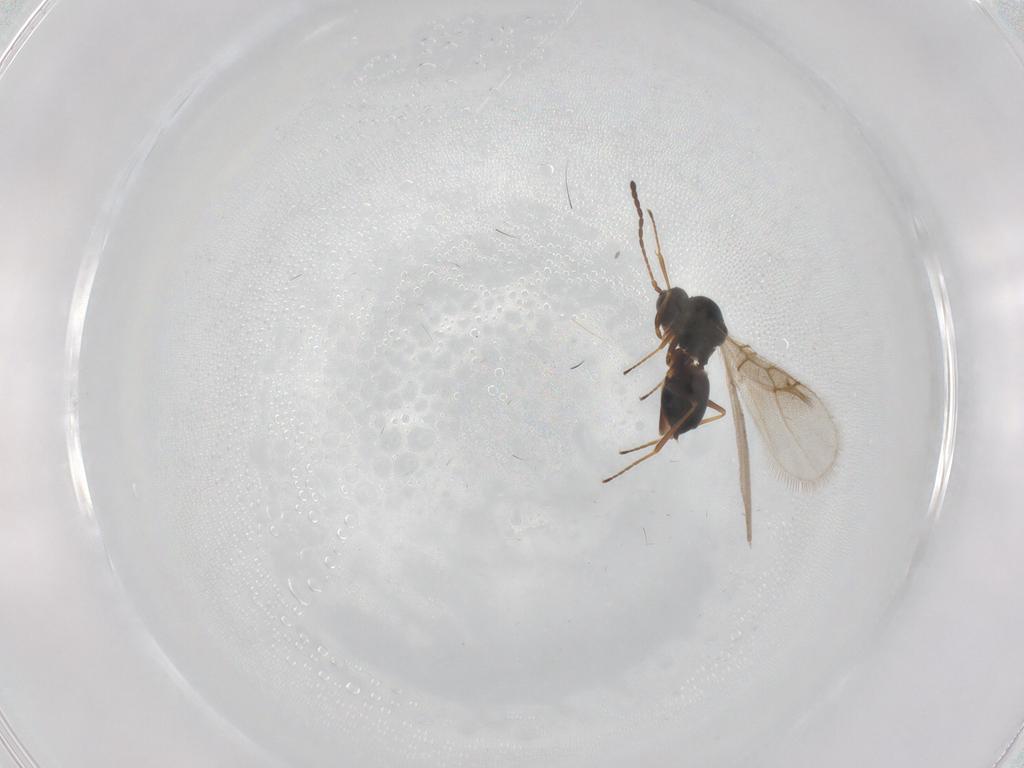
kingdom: Animalia
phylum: Arthropoda
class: Insecta
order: Hymenoptera
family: Figitidae
